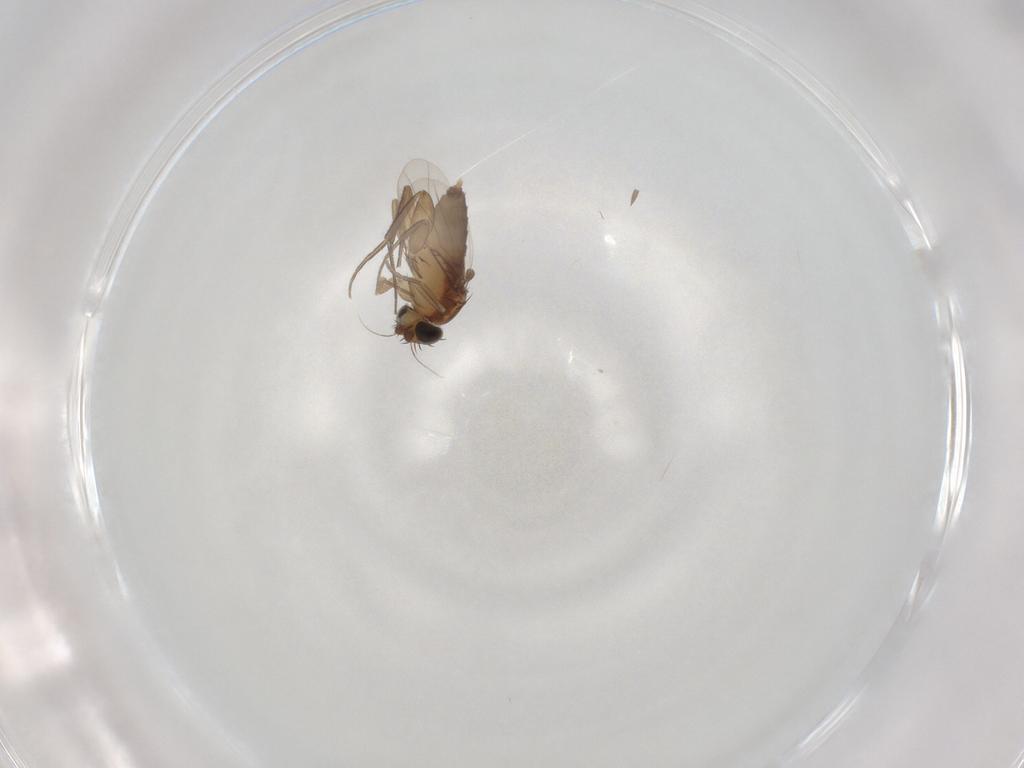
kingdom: Animalia
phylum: Arthropoda
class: Insecta
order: Diptera
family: Phoridae
